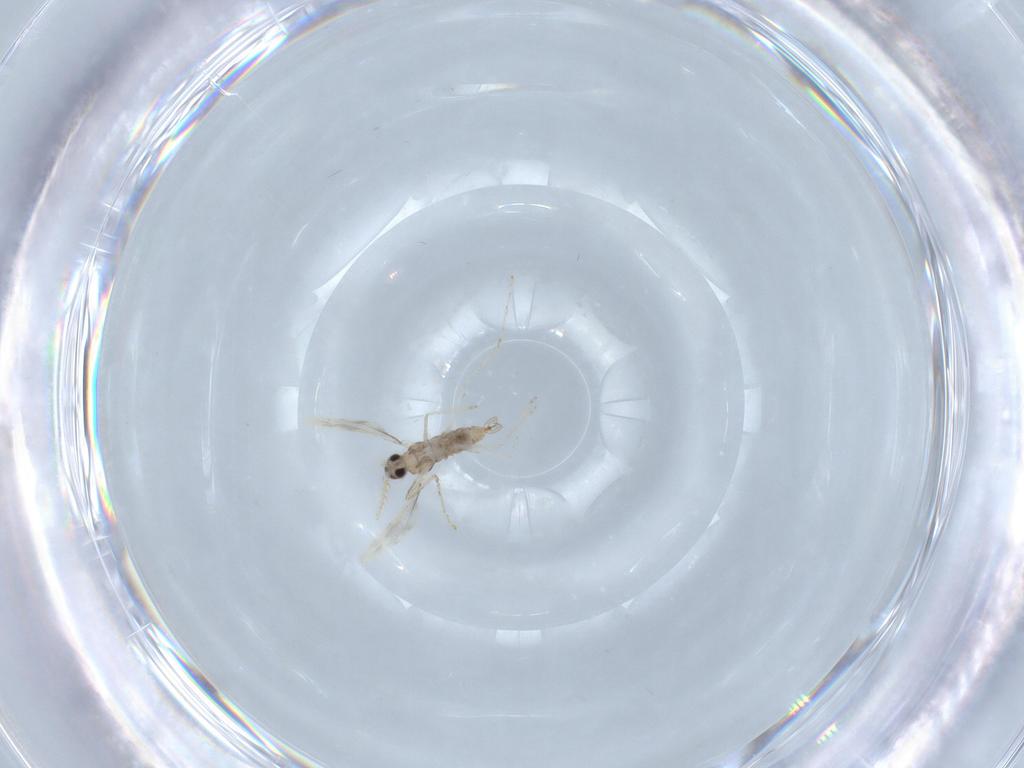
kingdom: Animalia
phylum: Arthropoda
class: Insecta
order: Diptera
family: Cecidomyiidae
